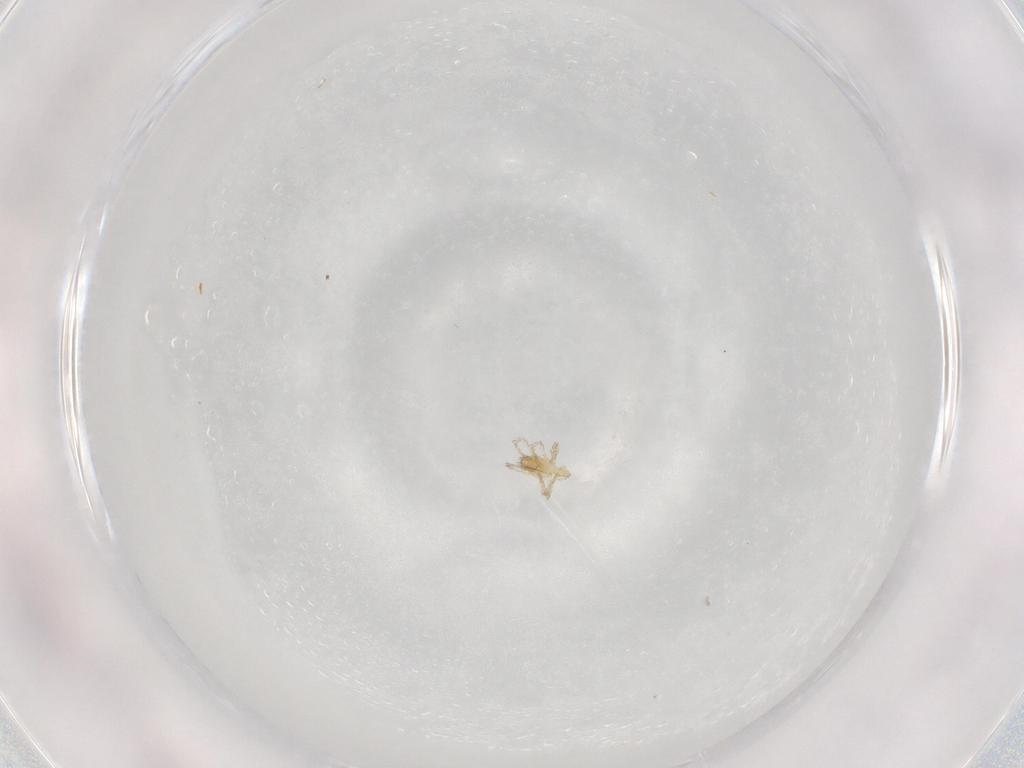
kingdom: Animalia
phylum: Arthropoda
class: Arachnida
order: Trombidiformes
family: Erythraeidae
